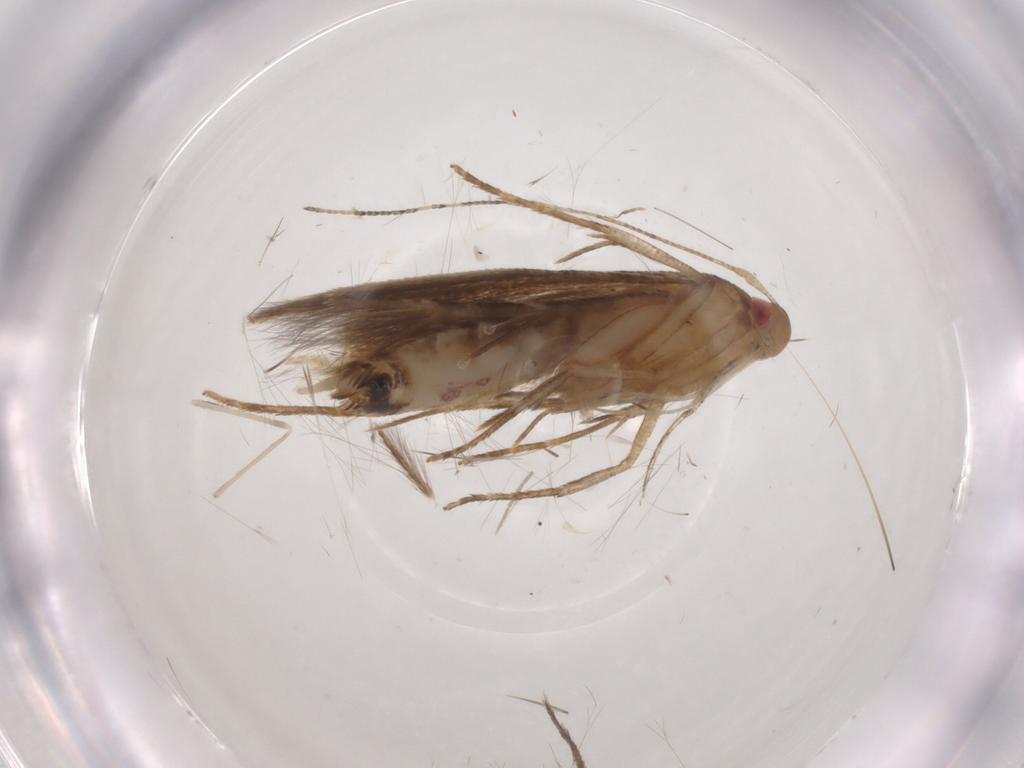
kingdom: Animalia
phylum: Arthropoda
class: Insecta
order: Lepidoptera
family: Cosmopterigidae
